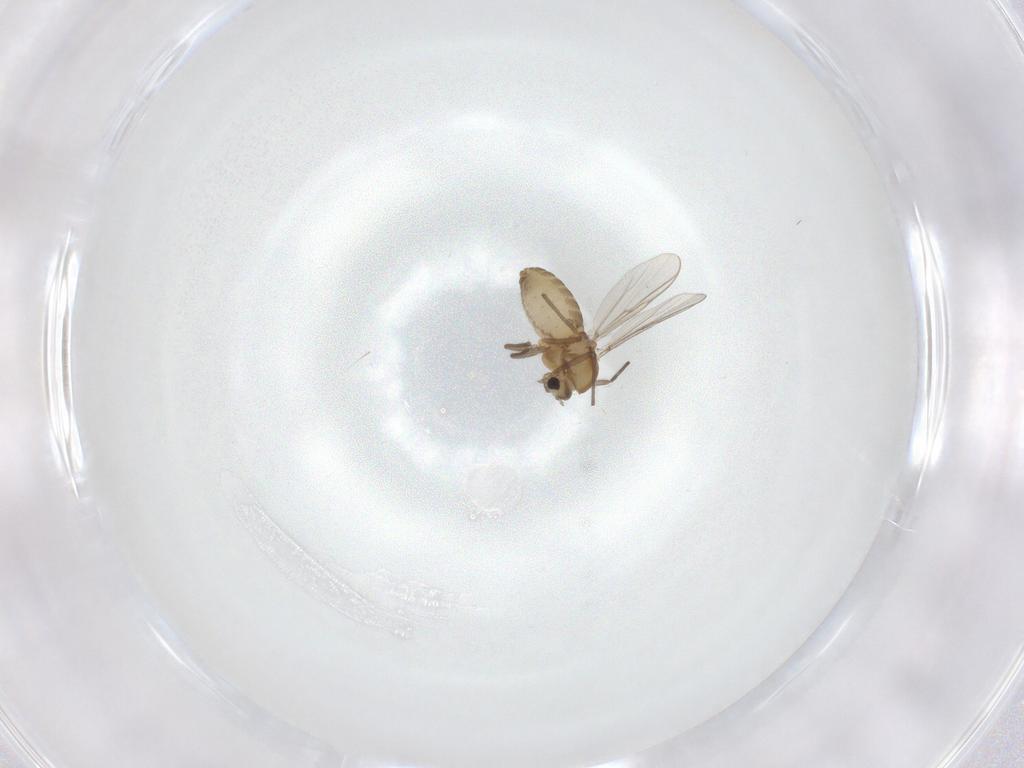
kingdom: Animalia
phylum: Arthropoda
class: Insecta
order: Diptera
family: Chironomidae
